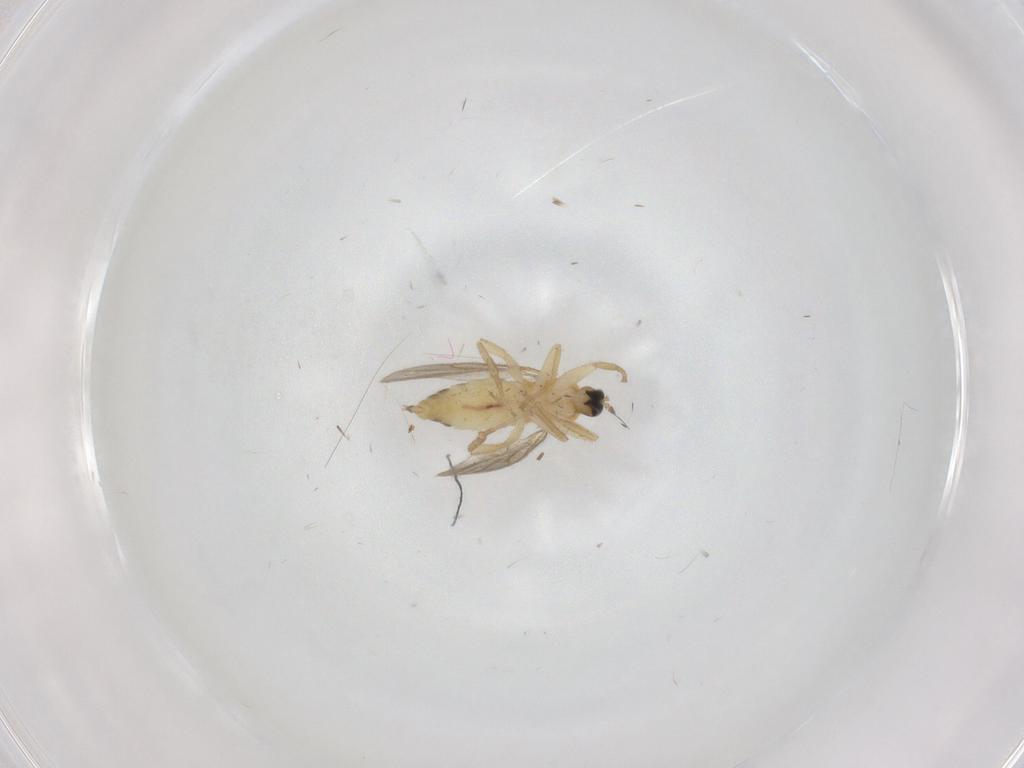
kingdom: Animalia
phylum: Arthropoda
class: Insecta
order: Diptera
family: Hybotidae
